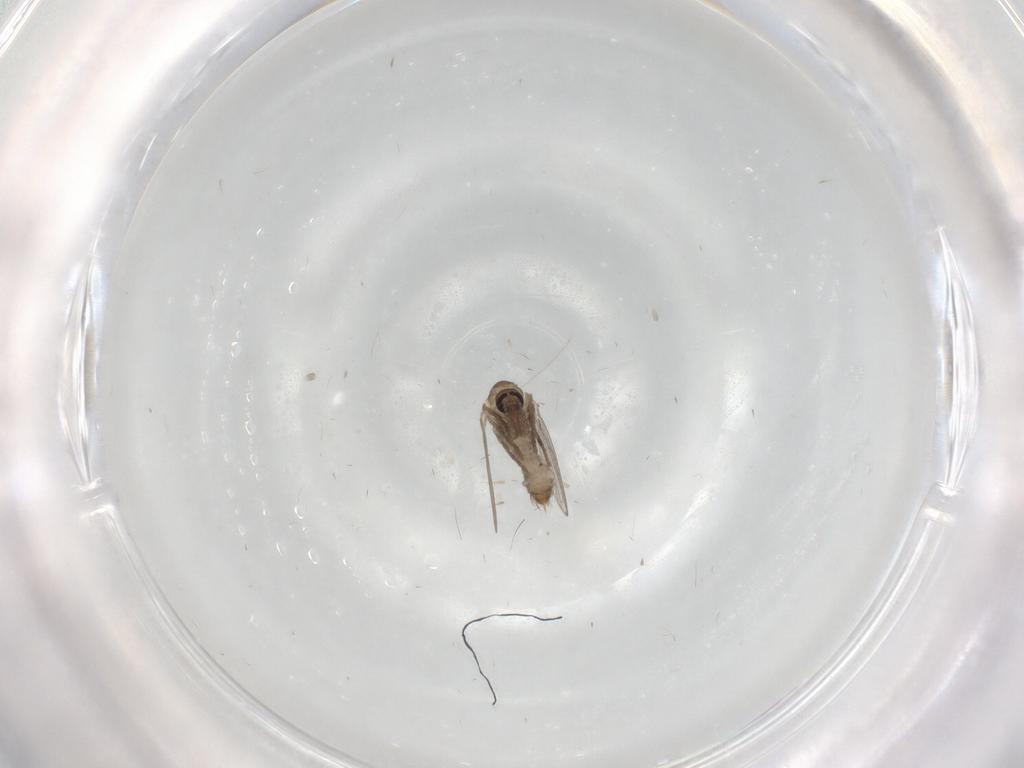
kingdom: Animalia
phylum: Arthropoda
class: Insecta
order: Diptera
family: Psychodidae
